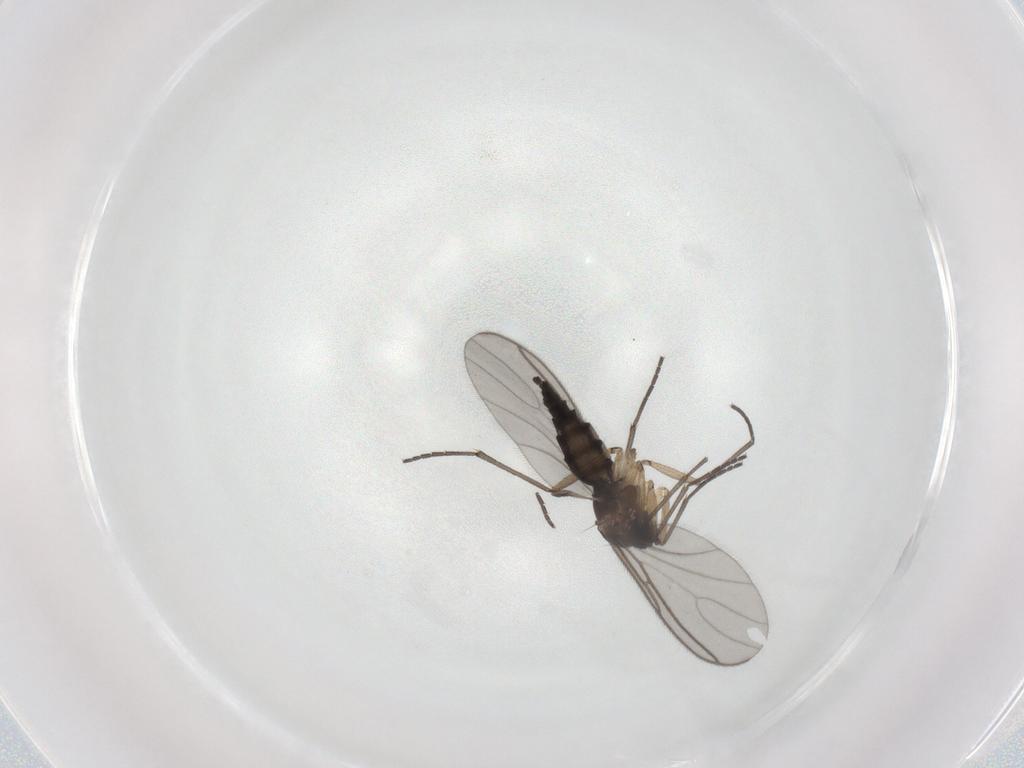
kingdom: Animalia
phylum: Arthropoda
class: Insecta
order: Diptera
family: Sciaridae
